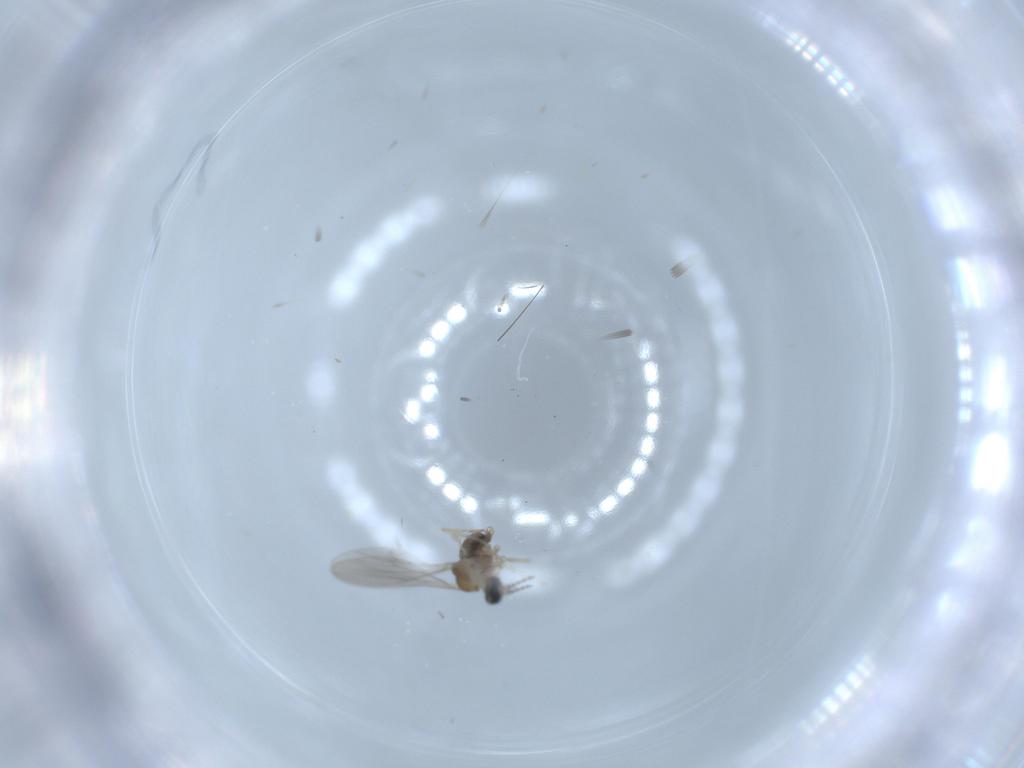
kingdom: Animalia
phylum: Arthropoda
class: Insecta
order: Diptera
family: Cecidomyiidae
